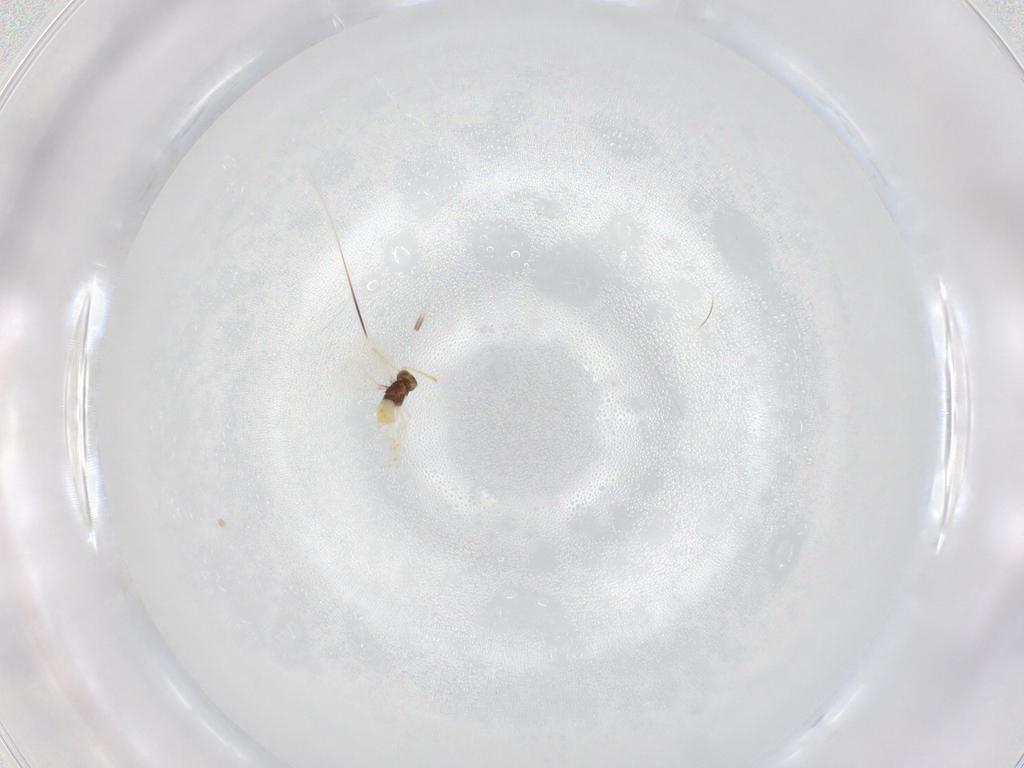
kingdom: Animalia
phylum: Arthropoda
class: Insecta
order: Hymenoptera
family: Aphelinidae
